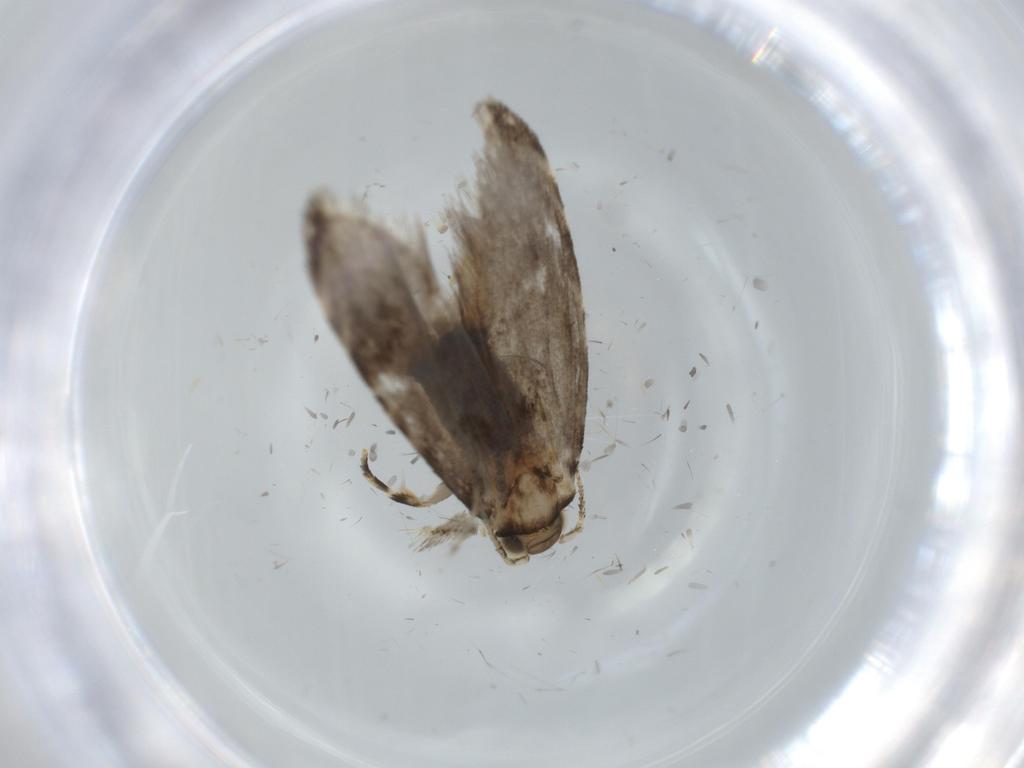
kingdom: Animalia
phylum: Arthropoda
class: Insecta
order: Lepidoptera
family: Tineidae
